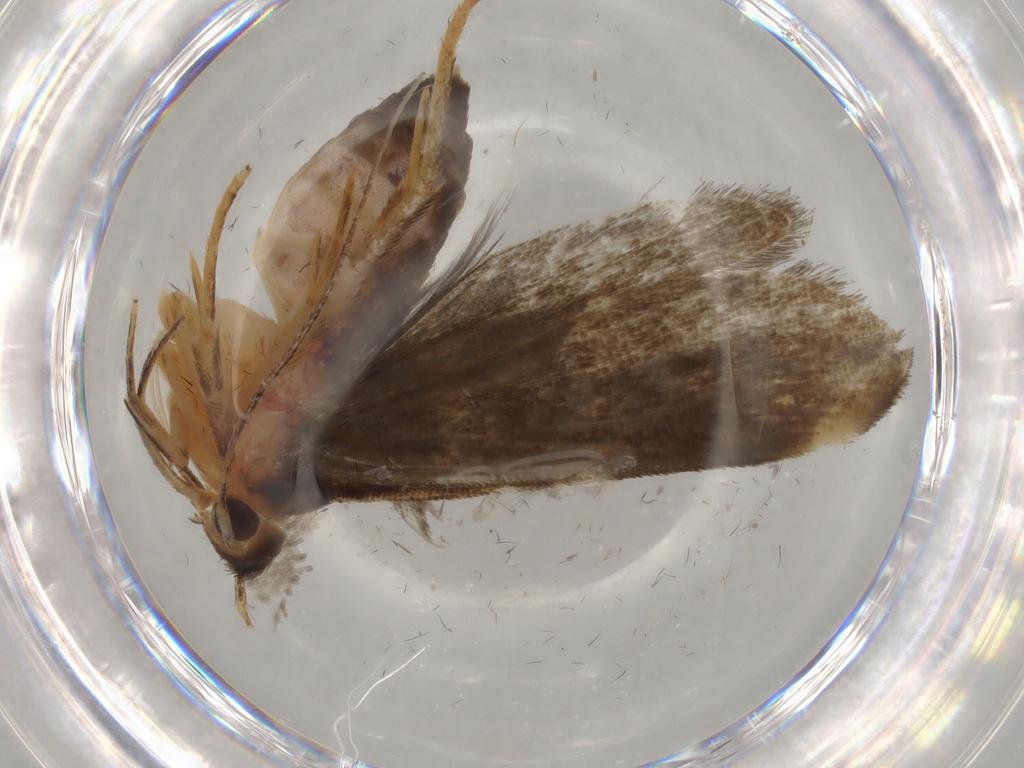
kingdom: Animalia
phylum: Arthropoda
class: Insecta
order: Lepidoptera
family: Gelechiidae
